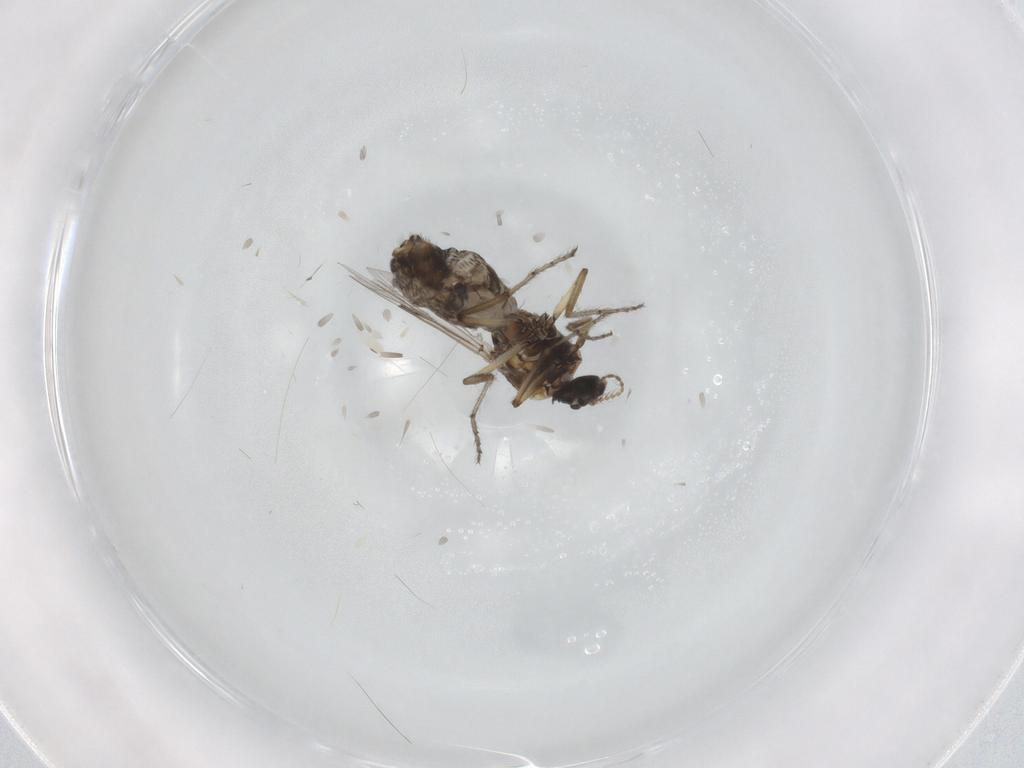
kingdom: Animalia
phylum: Arthropoda
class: Insecta
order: Diptera
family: Ceratopogonidae
